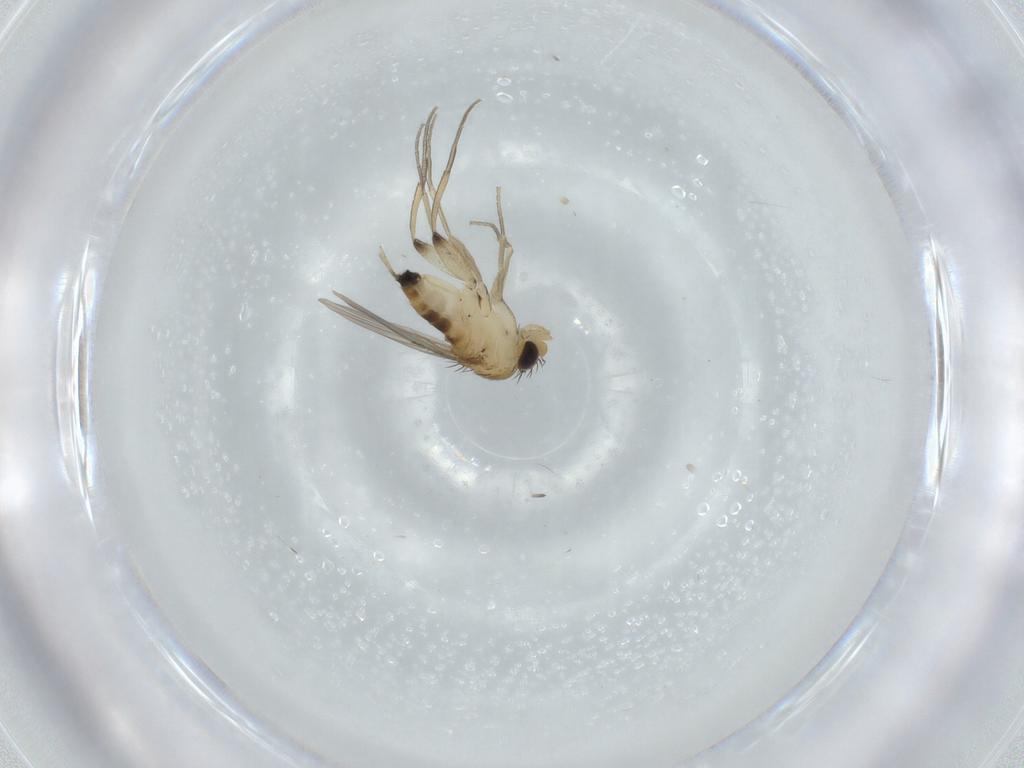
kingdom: Animalia
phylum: Arthropoda
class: Insecta
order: Diptera
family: Phoridae
